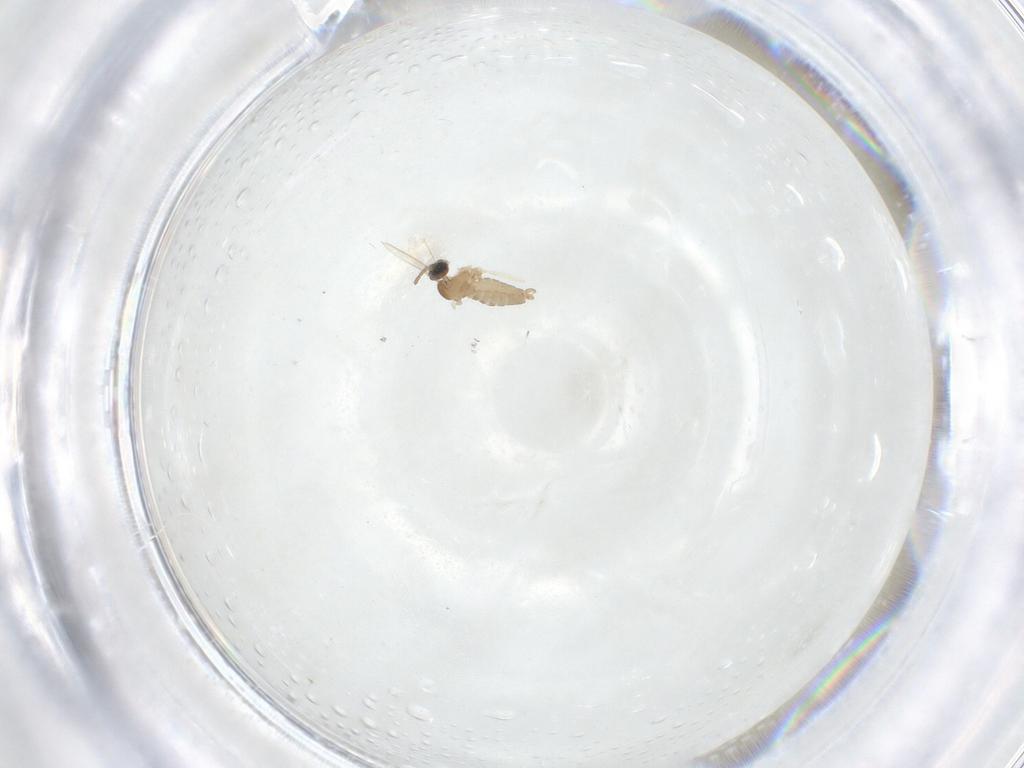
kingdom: Animalia
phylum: Arthropoda
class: Insecta
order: Diptera
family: Cecidomyiidae
